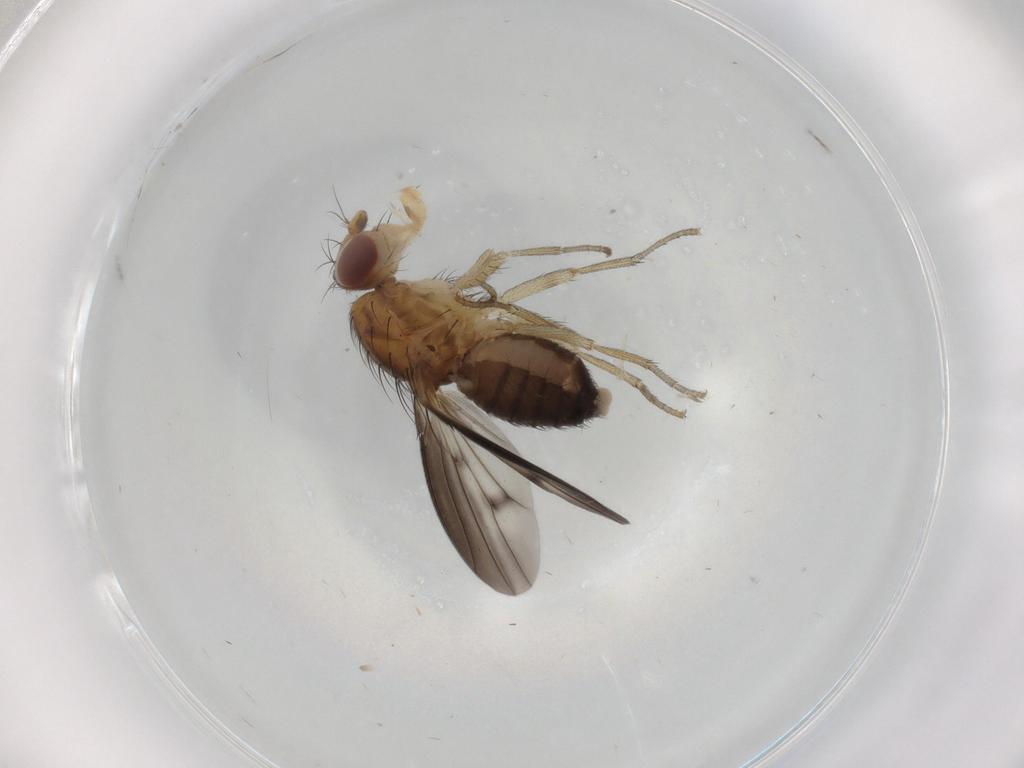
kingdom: Animalia
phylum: Arthropoda
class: Insecta
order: Diptera
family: Heleomyzidae
